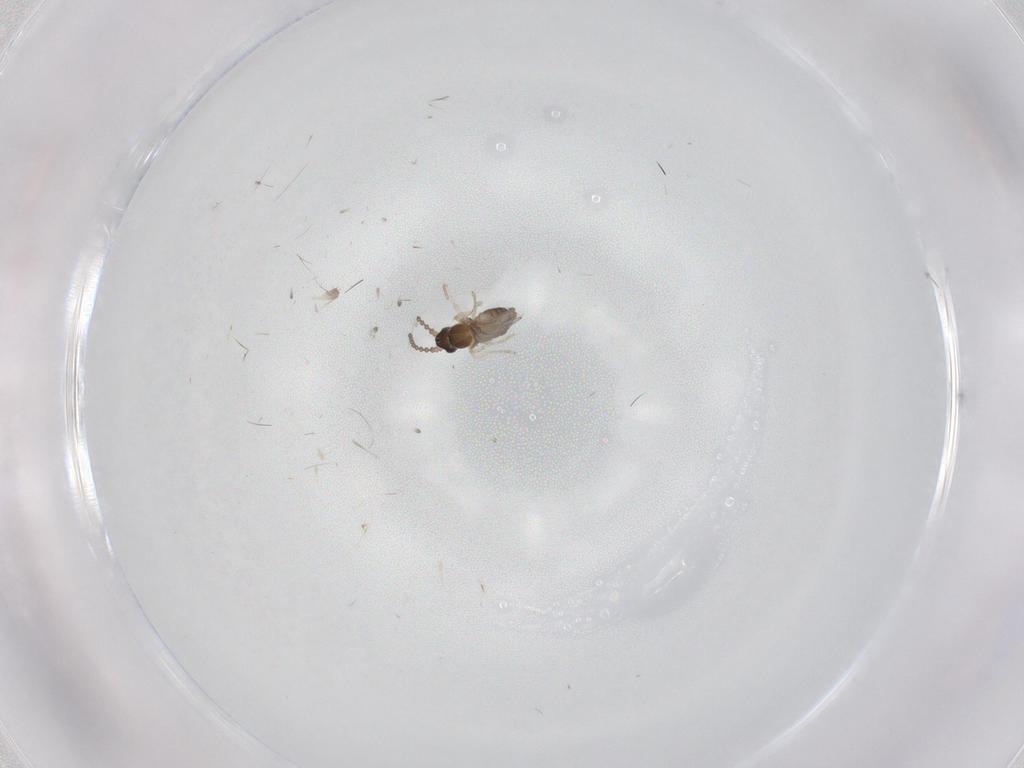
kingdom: Animalia
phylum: Arthropoda
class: Insecta
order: Diptera
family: Cecidomyiidae
